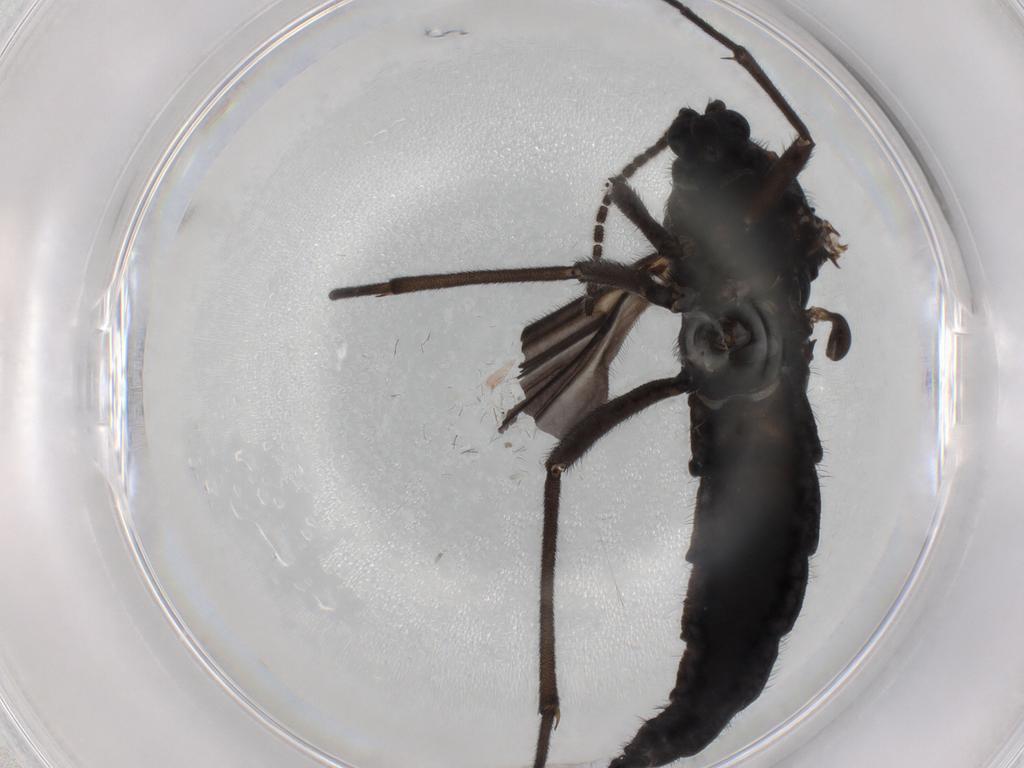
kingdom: Animalia
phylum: Arthropoda
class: Insecta
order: Diptera
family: Sciaridae
